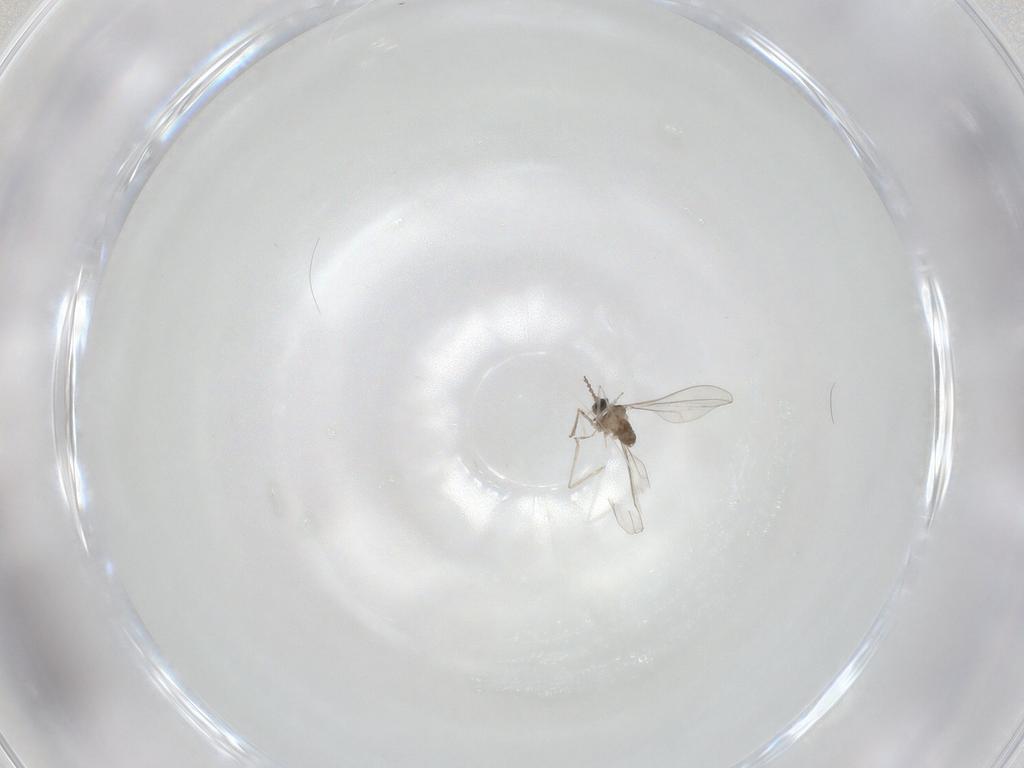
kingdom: Animalia
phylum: Arthropoda
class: Insecta
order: Diptera
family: Cecidomyiidae
